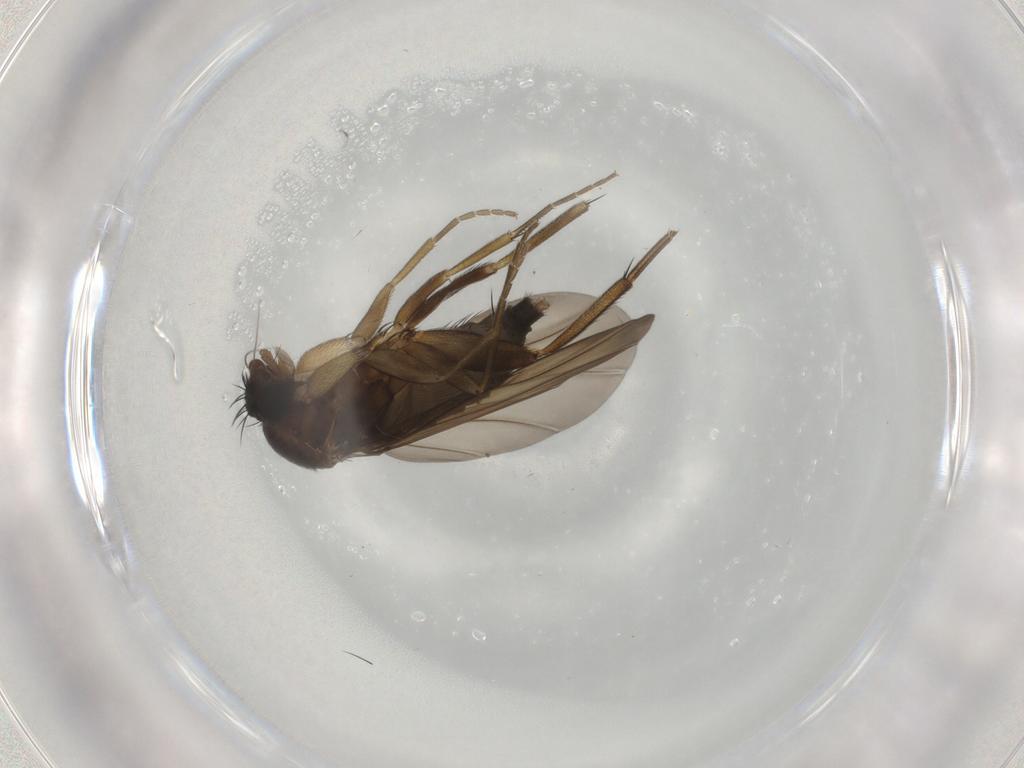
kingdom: Animalia
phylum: Arthropoda
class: Insecta
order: Diptera
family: Phoridae
